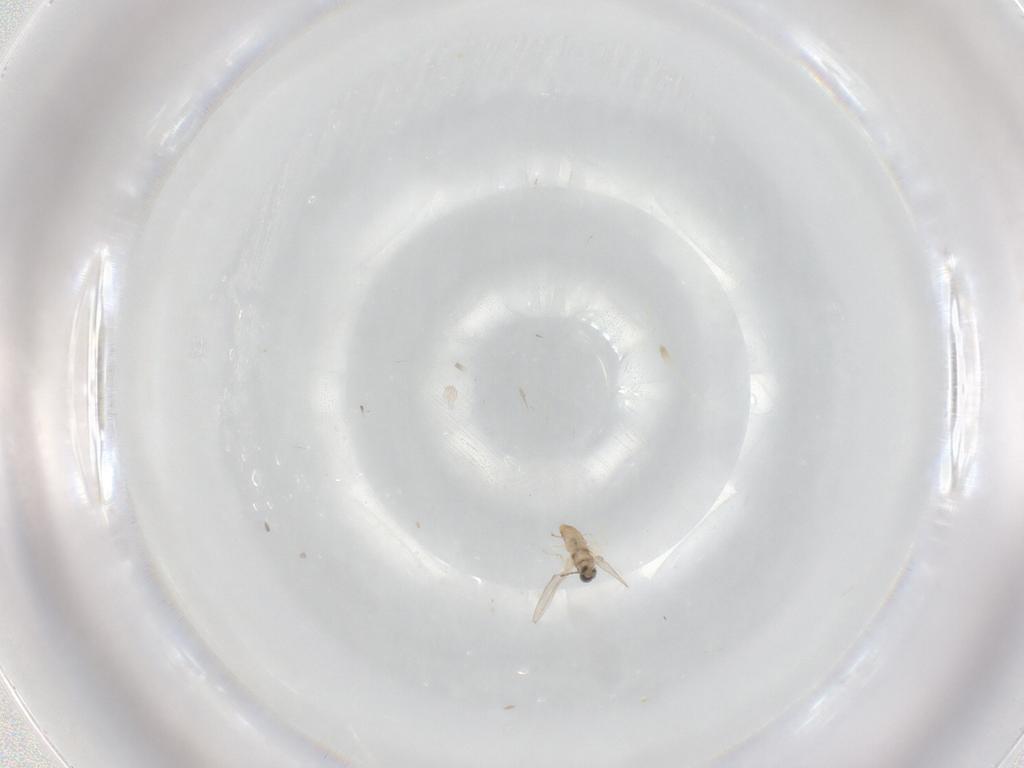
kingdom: Animalia
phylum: Arthropoda
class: Insecta
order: Diptera
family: Cecidomyiidae
